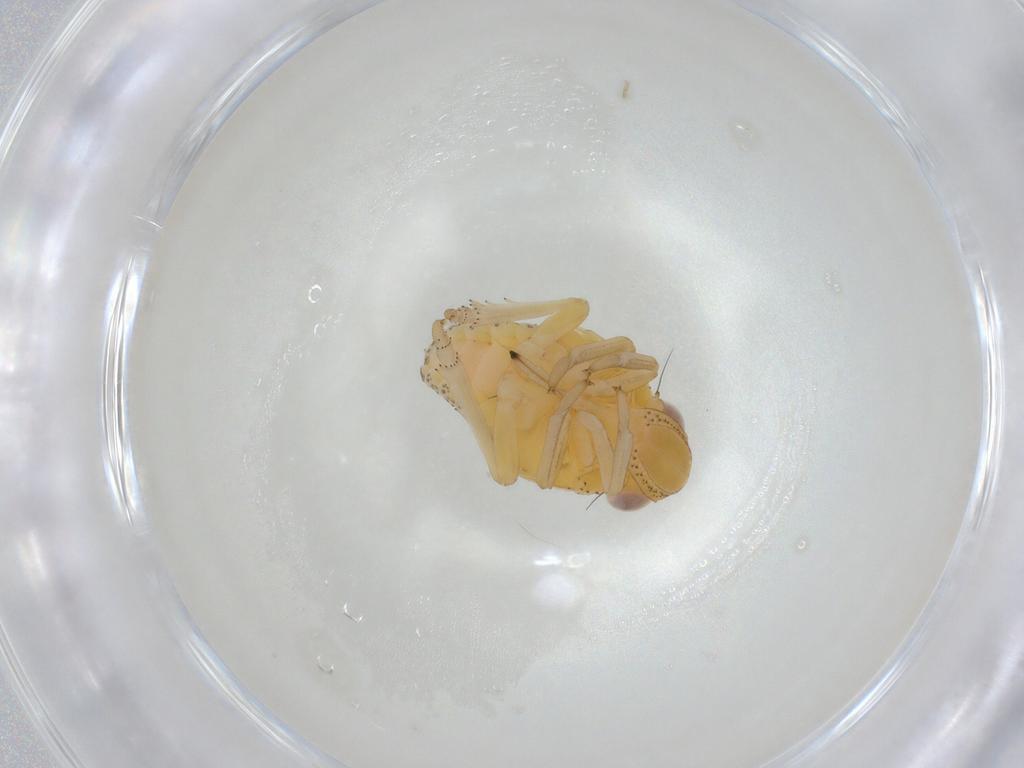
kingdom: Animalia
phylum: Arthropoda
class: Insecta
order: Hemiptera
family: Tropiduchidae
